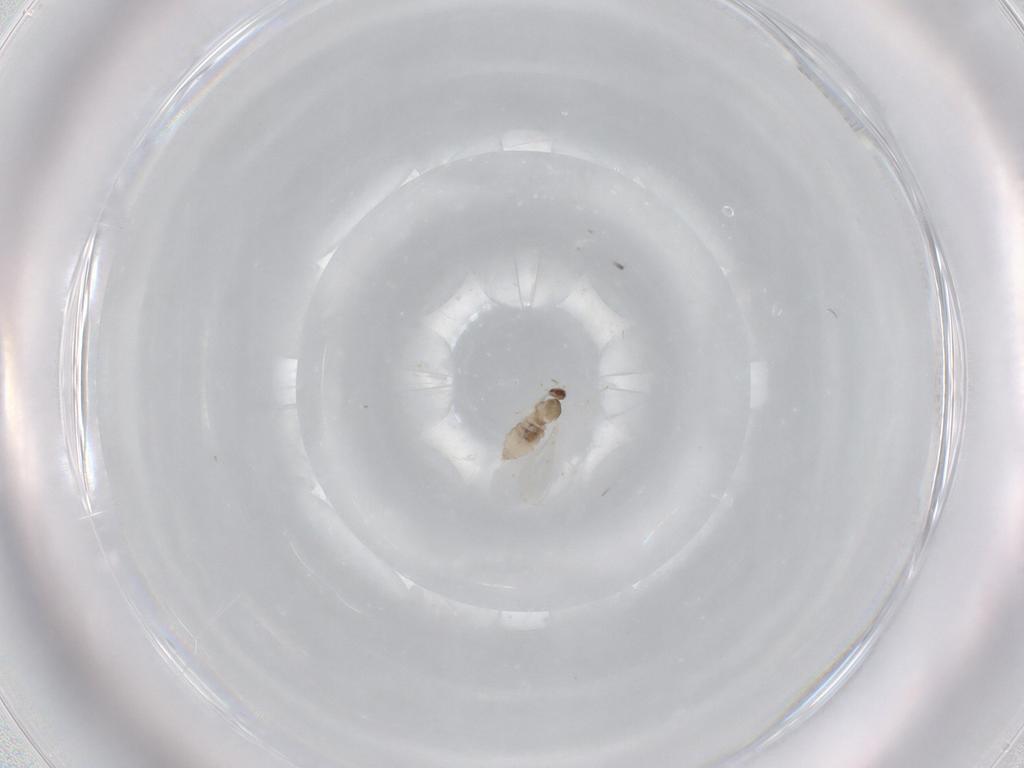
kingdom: Animalia
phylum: Arthropoda
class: Insecta
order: Diptera
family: Cecidomyiidae
